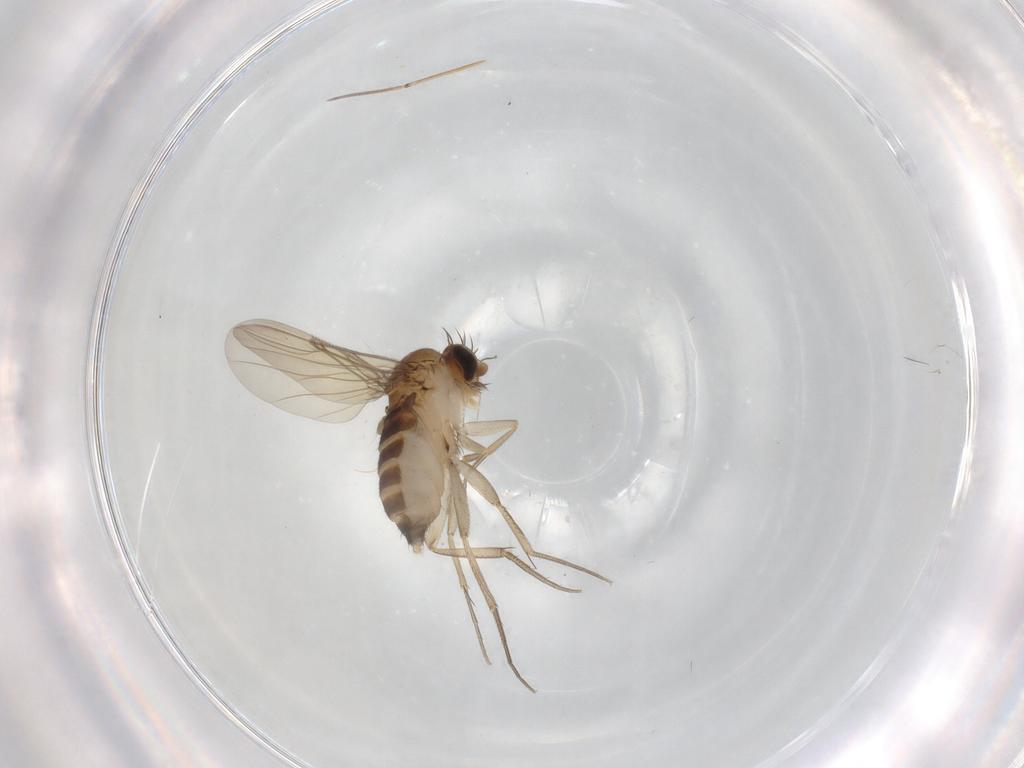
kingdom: Animalia
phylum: Arthropoda
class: Insecta
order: Diptera
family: Phoridae
